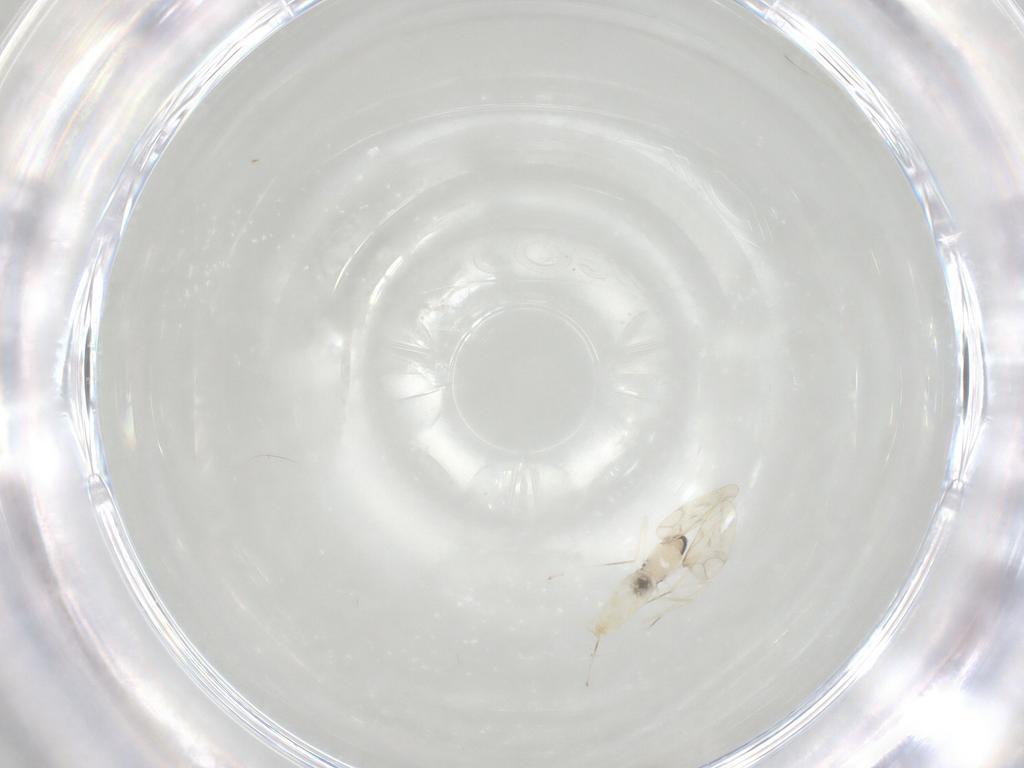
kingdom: Animalia
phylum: Arthropoda
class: Insecta
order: Diptera
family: Cecidomyiidae
